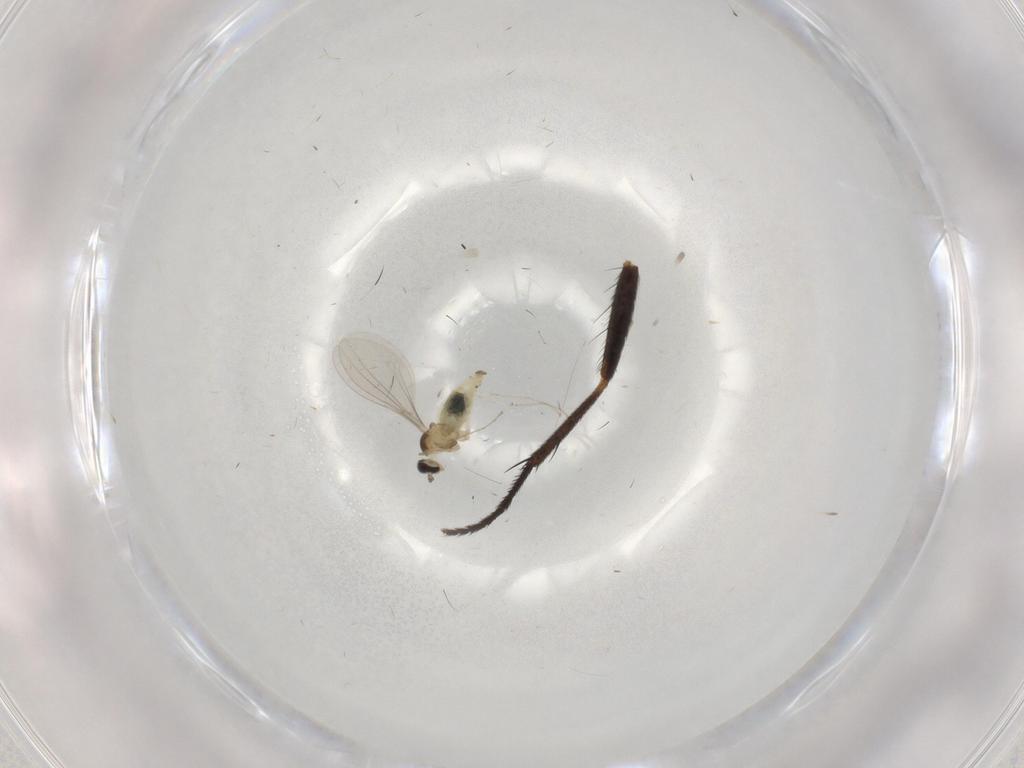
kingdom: Animalia
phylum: Arthropoda
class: Insecta
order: Diptera
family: Muscidae
